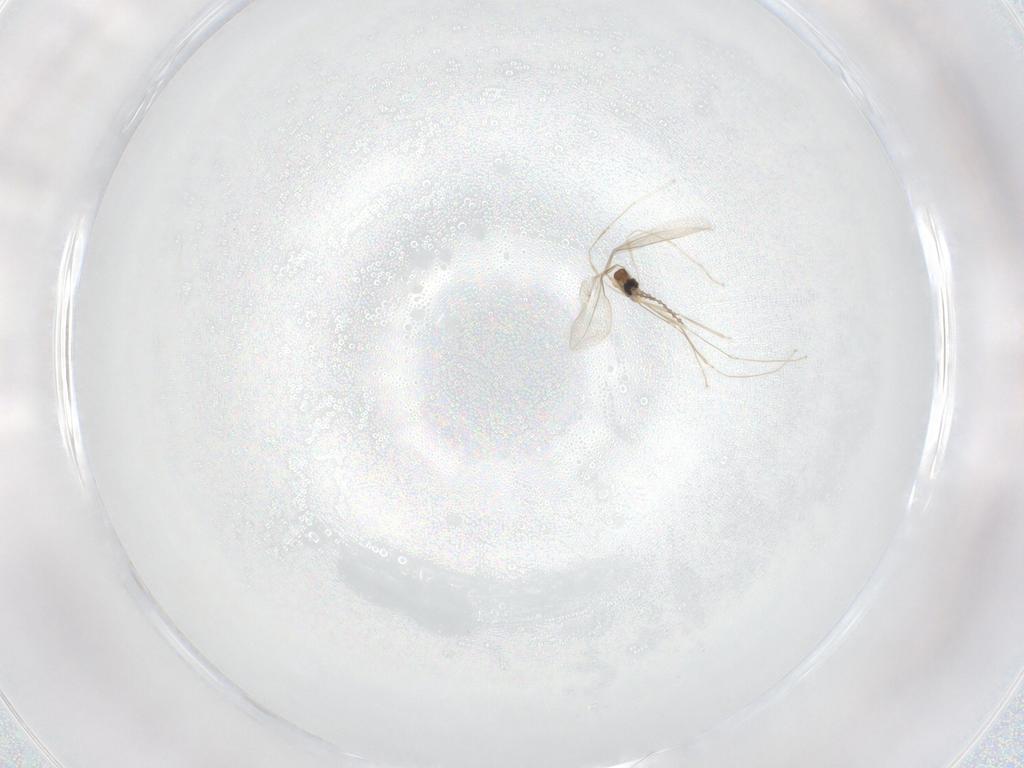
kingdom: Animalia
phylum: Arthropoda
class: Insecta
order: Diptera
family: Cecidomyiidae
